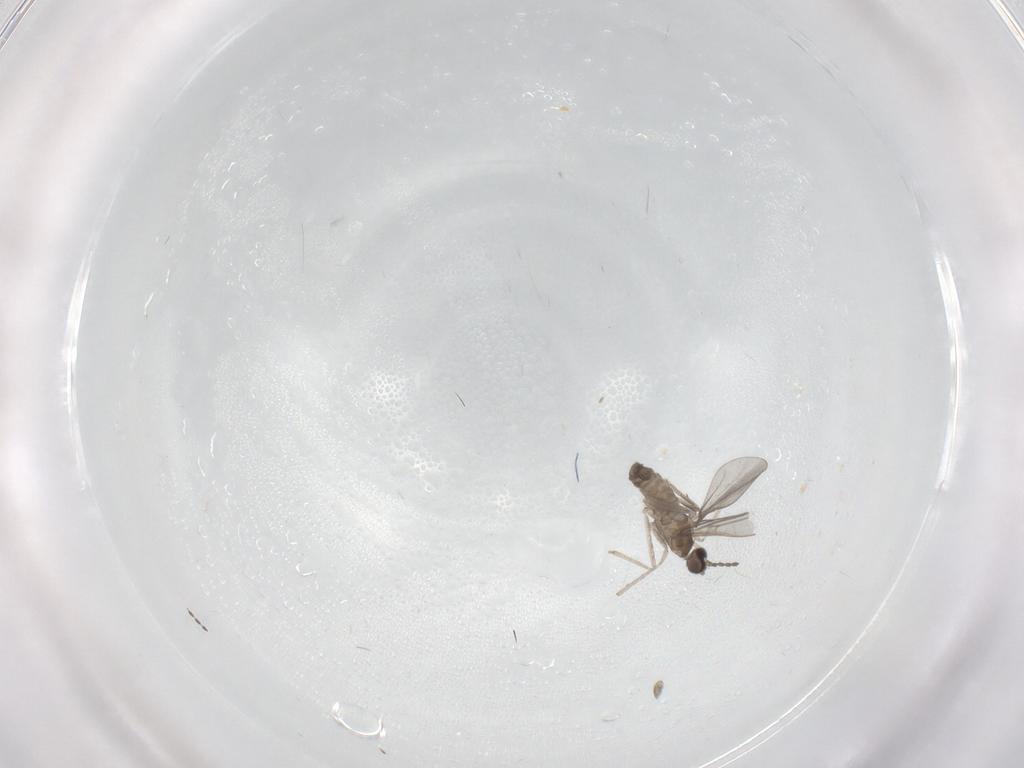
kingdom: Animalia
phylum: Arthropoda
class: Insecta
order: Diptera
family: Cecidomyiidae
